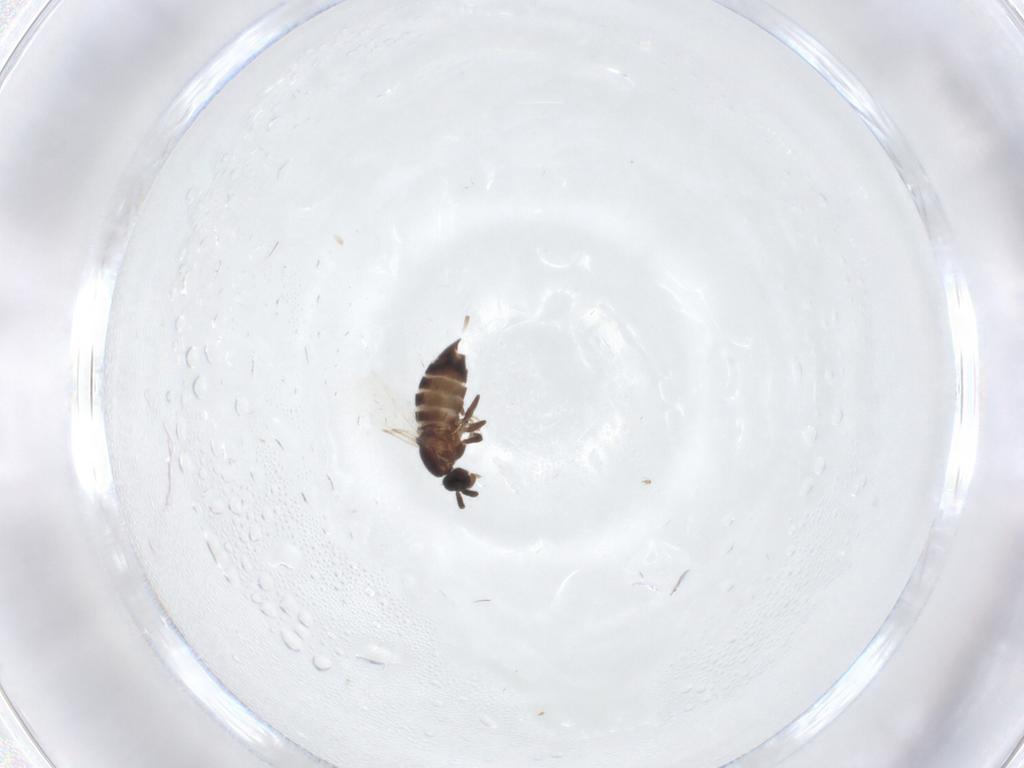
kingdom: Animalia
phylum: Arthropoda
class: Insecta
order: Diptera
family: Scatopsidae
